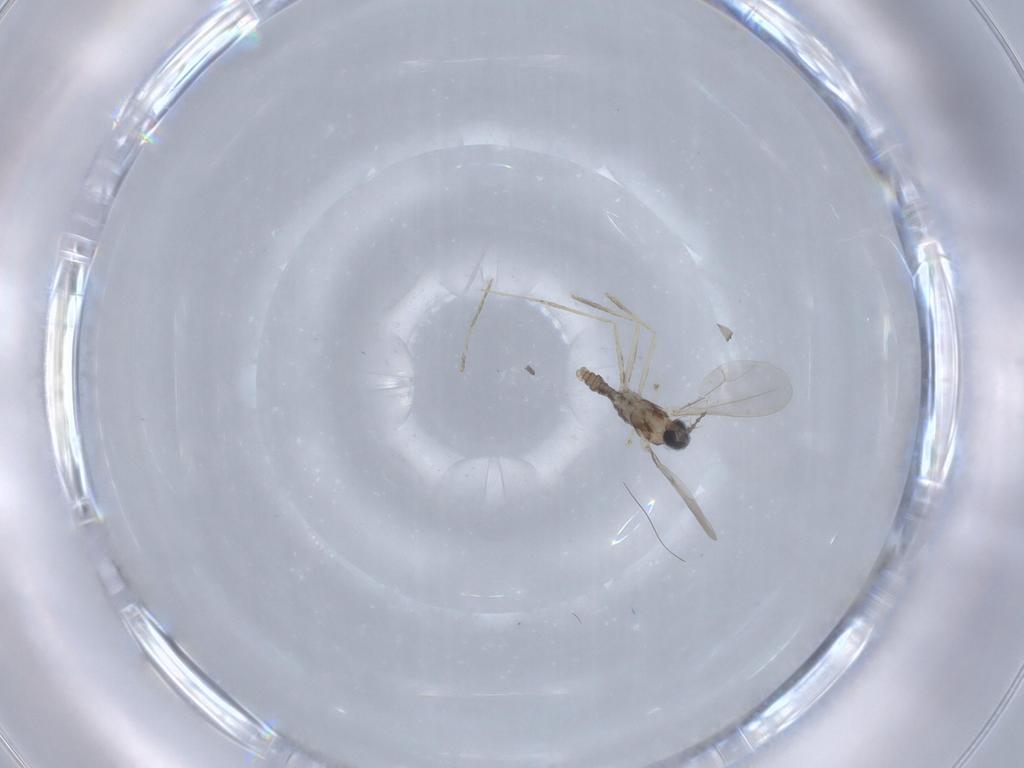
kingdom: Animalia
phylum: Arthropoda
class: Insecta
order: Diptera
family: Cecidomyiidae
